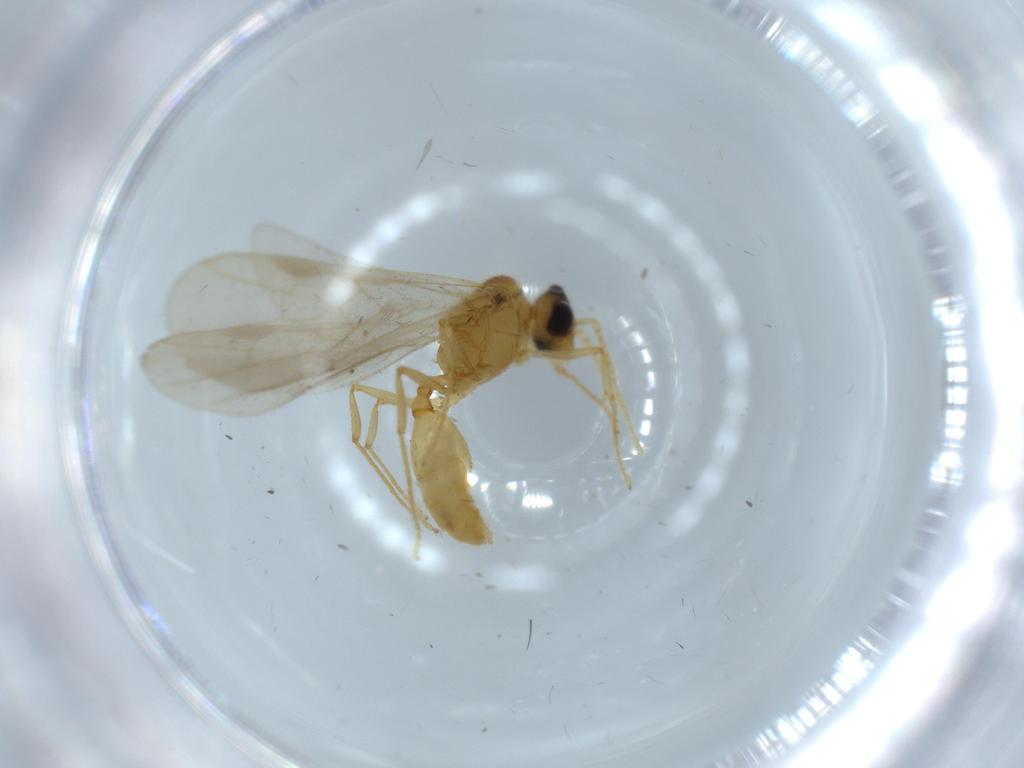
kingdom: Animalia
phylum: Arthropoda
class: Insecta
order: Hymenoptera
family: Formicidae
